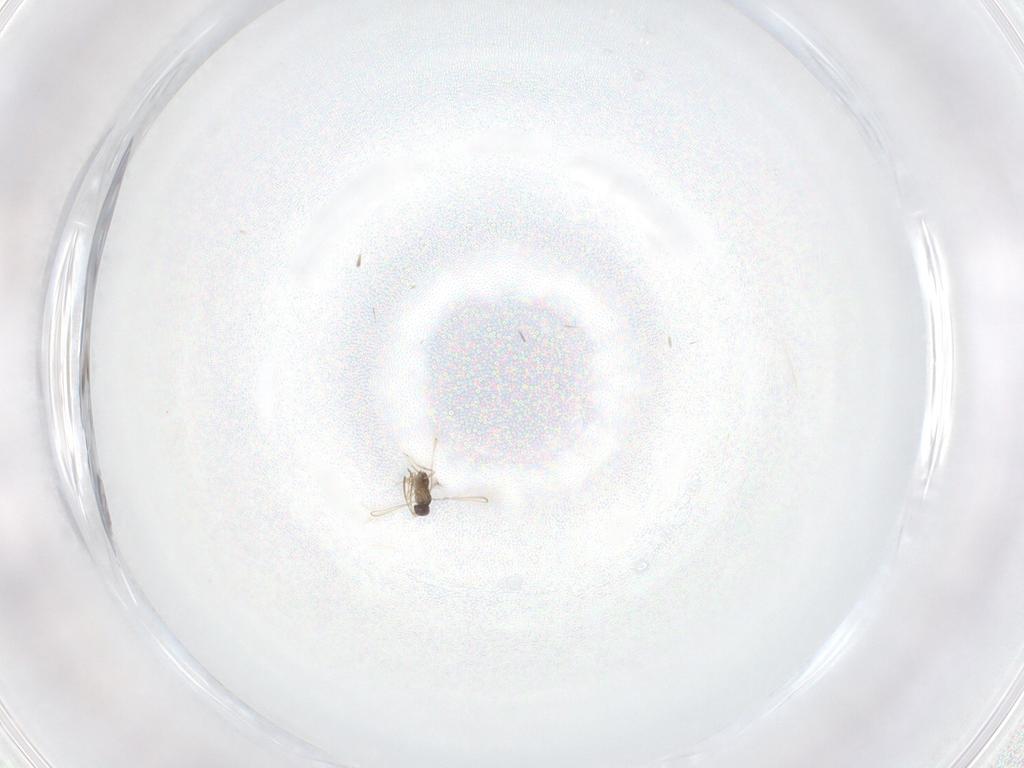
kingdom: Animalia
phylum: Arthropoda
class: Insecta
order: Hymenoptera
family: Mymaridae
